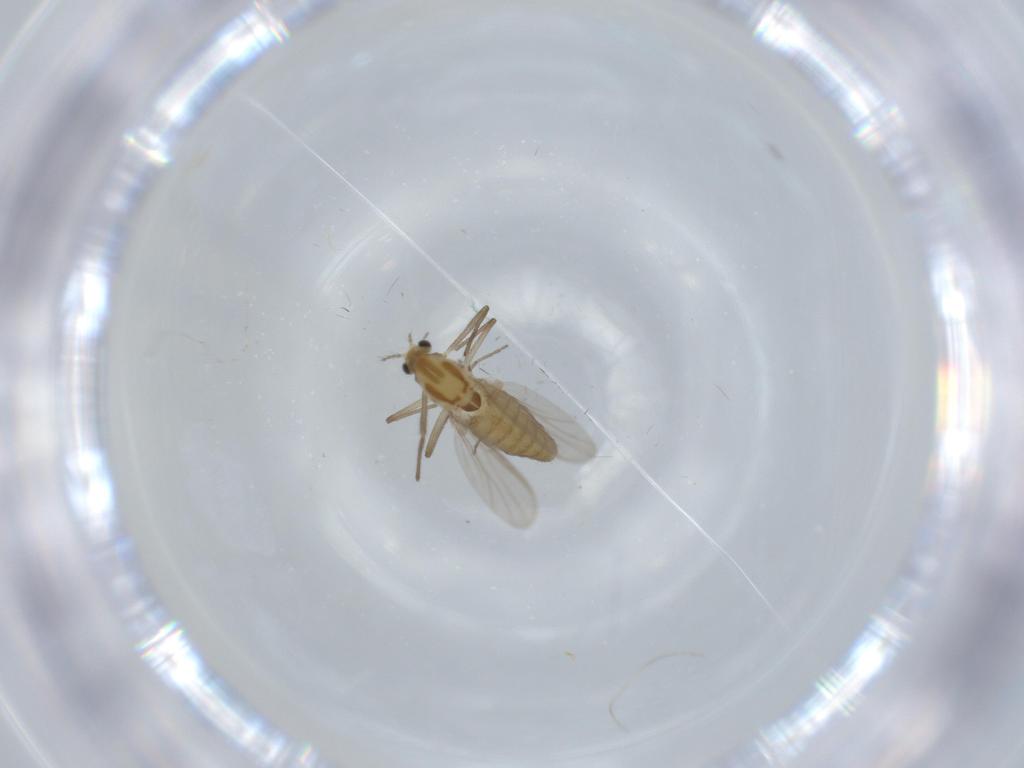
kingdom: Animalia
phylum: Arthropoda
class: Insecta
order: Diptera
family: Chironomidae
